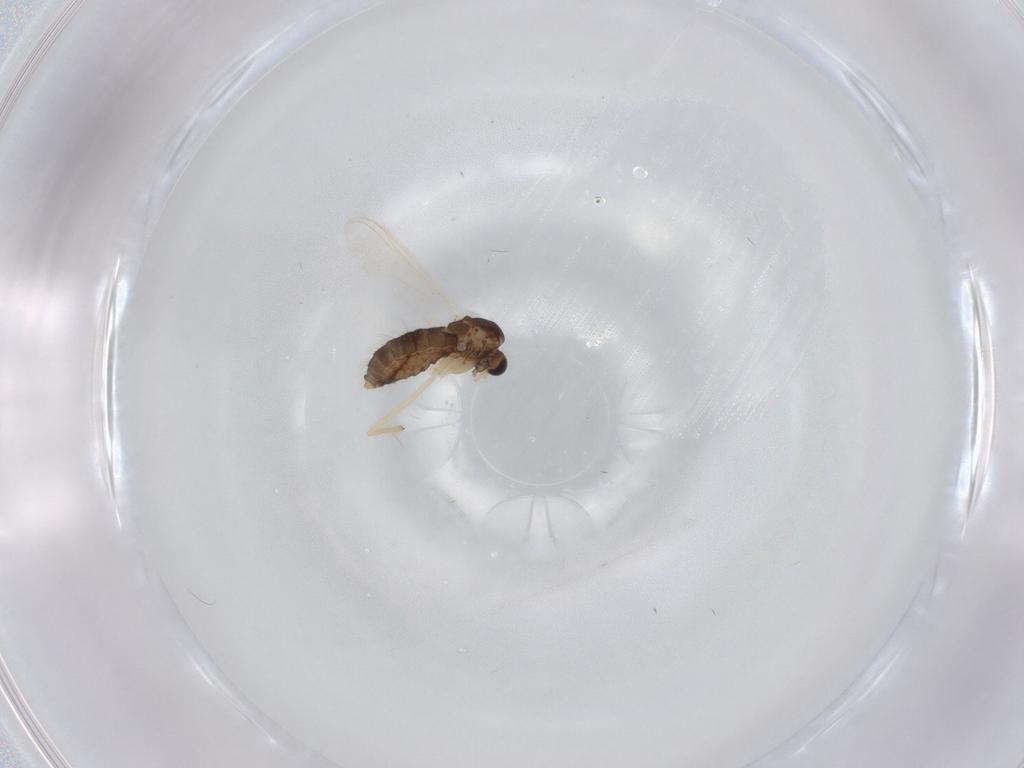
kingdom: Animalia
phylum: Arthropoda
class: Insecta
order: Diptera
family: Chironomidae
